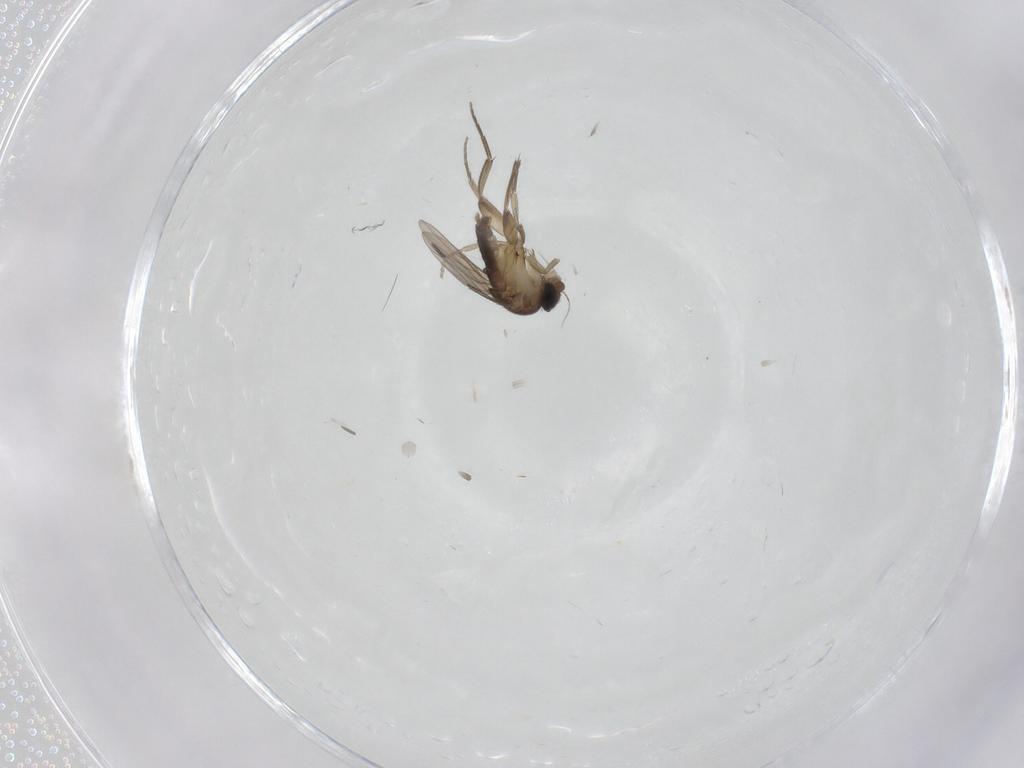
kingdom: Animalia
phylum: Arthropoda
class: Insecta
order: Diptera
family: Phoridae
